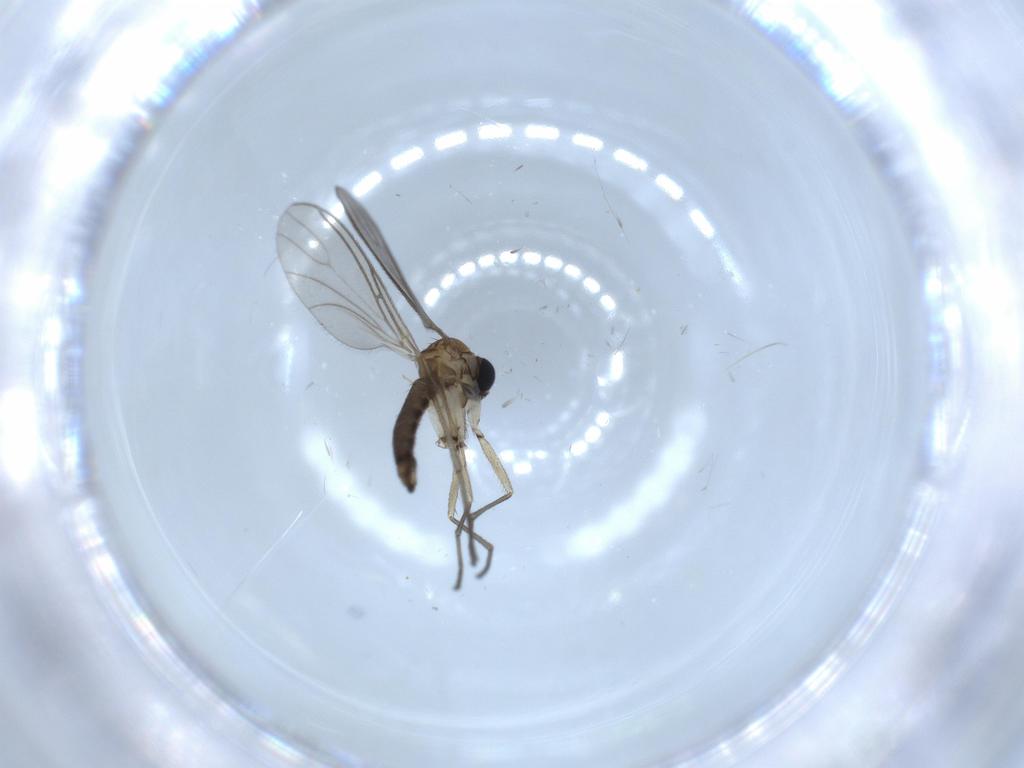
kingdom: Animalia
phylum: Arthropoda
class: Insecta
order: Diptera
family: Sciaridae
